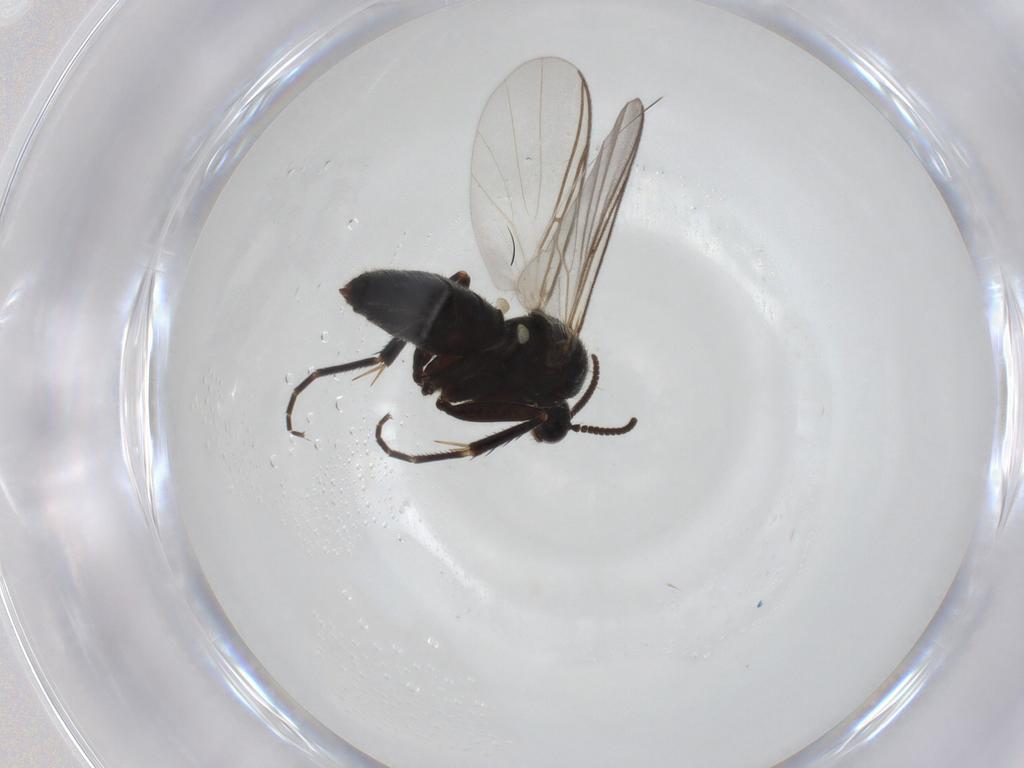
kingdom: Animalia
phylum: Arthropoda
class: Insecta
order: Diptera
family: Mycetophilidae
